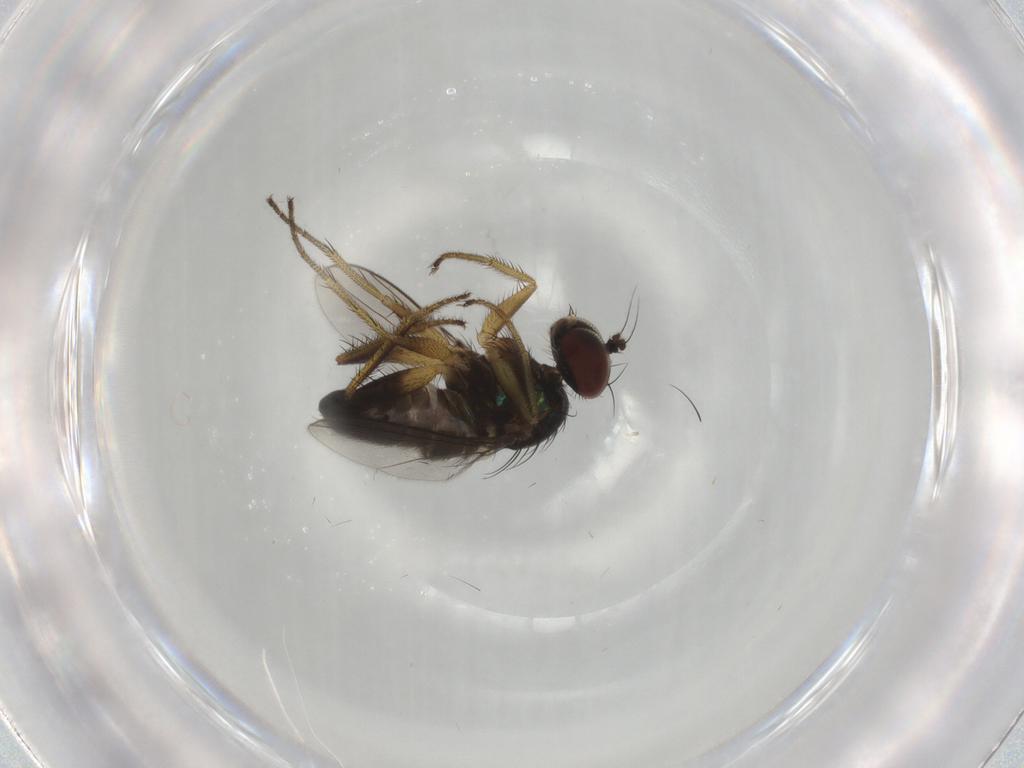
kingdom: Animalia
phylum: Arthropoda
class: Insecta
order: Diptera
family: Dolichopodidae
